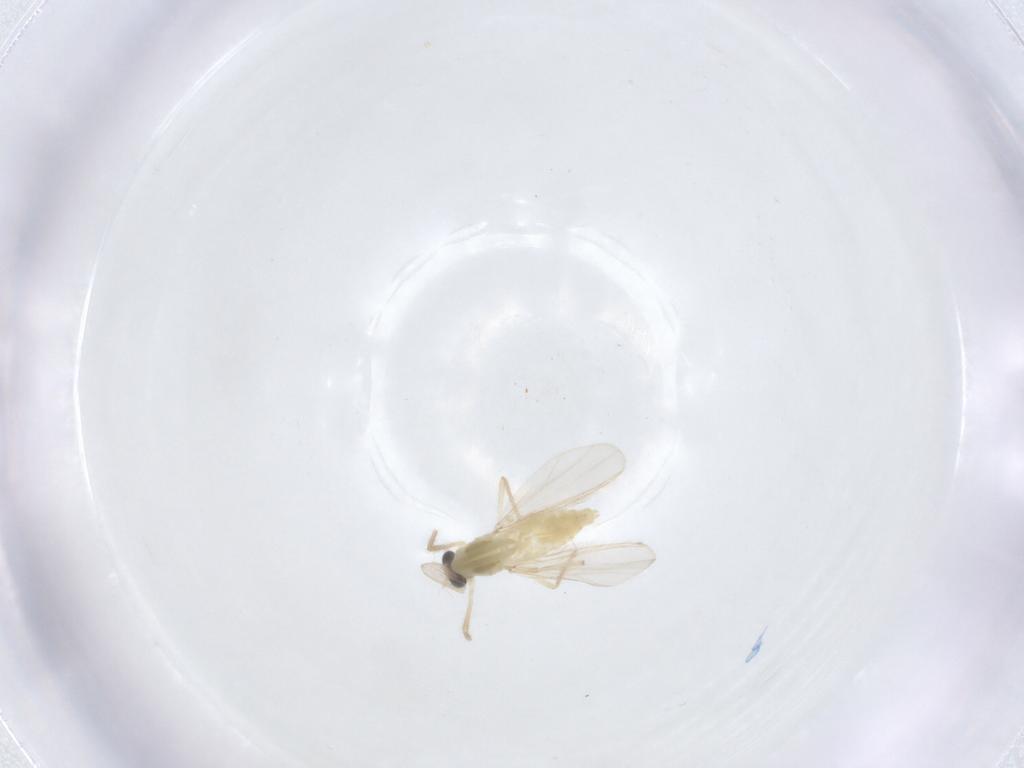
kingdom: Animalia
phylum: Arthropoda
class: Insecta
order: Diptera
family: Chironomidae
